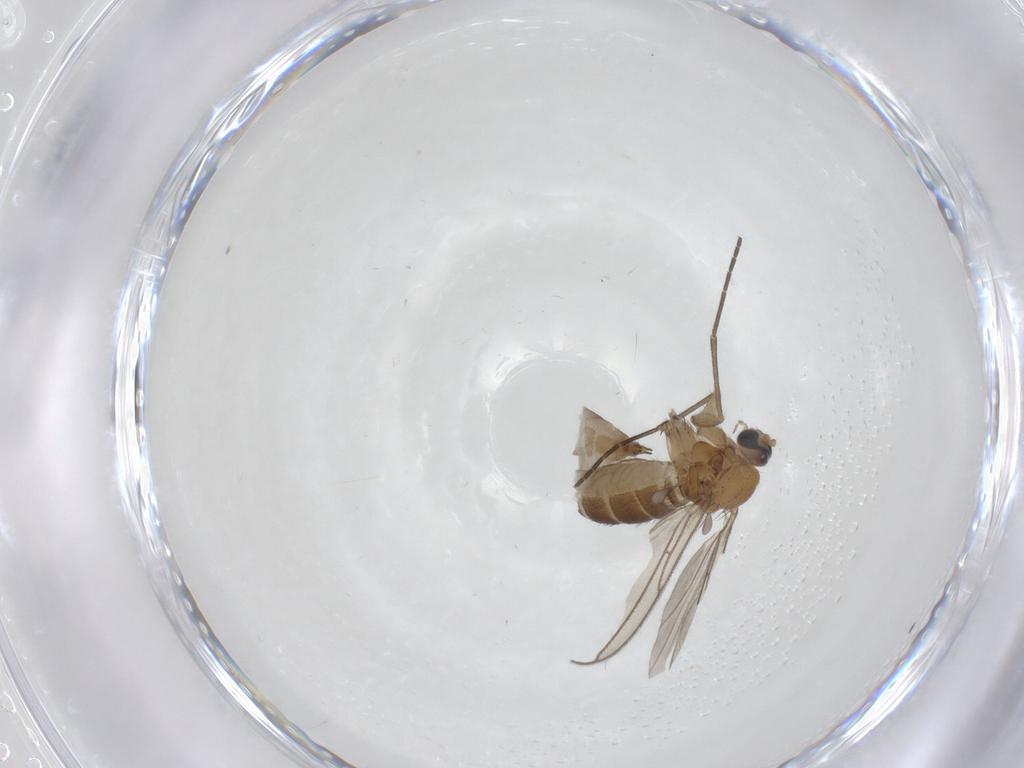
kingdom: Animalia
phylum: Arthropoda
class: Insecta
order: Diptera
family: Sciaridae
